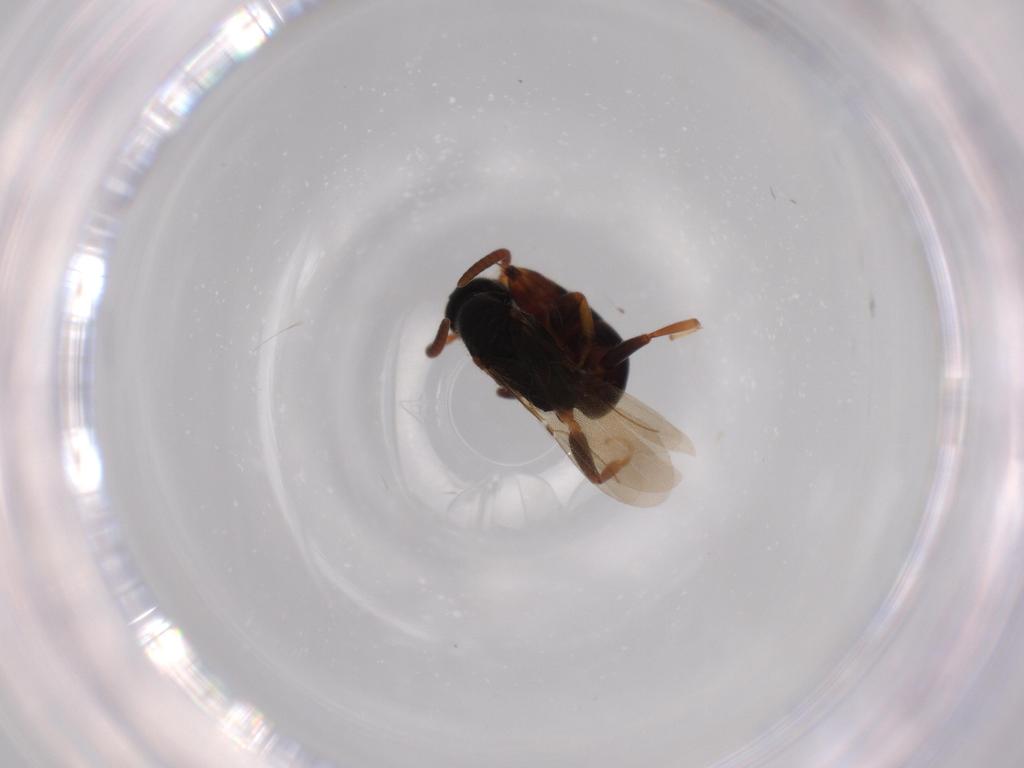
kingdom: Animalia
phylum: Arthropoda
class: Insecta
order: Hymenoptera
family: Bethylidae
